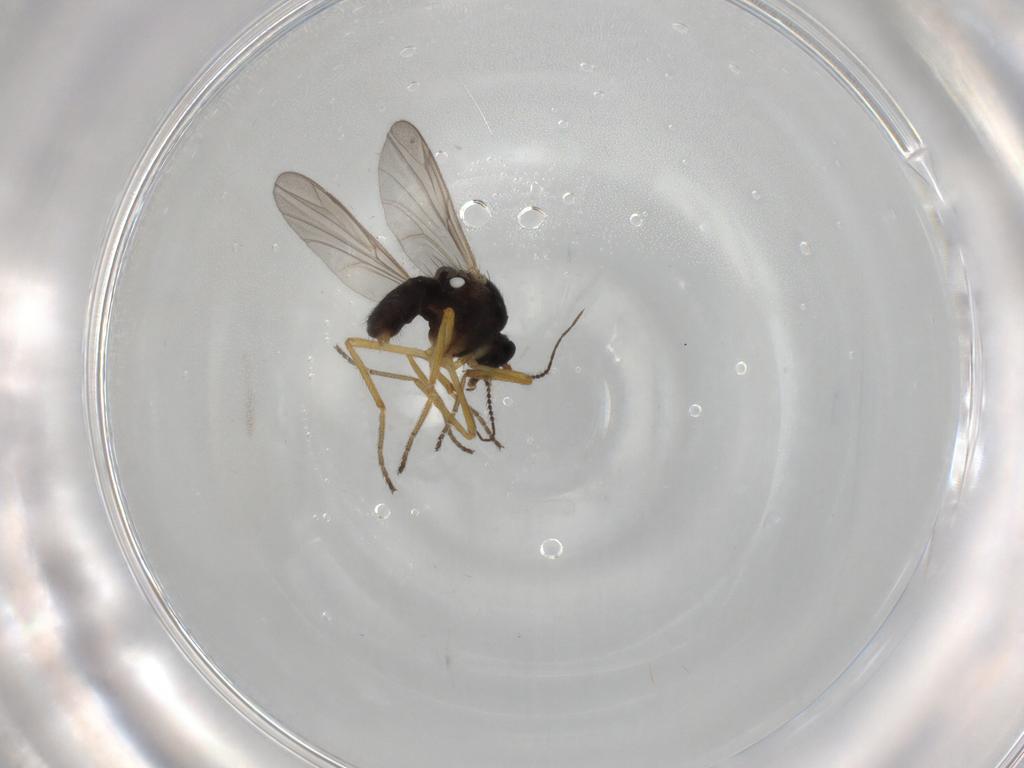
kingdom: Animalia
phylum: Arthropoda
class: Insecta
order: Diptera
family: Ceratopogonidae
